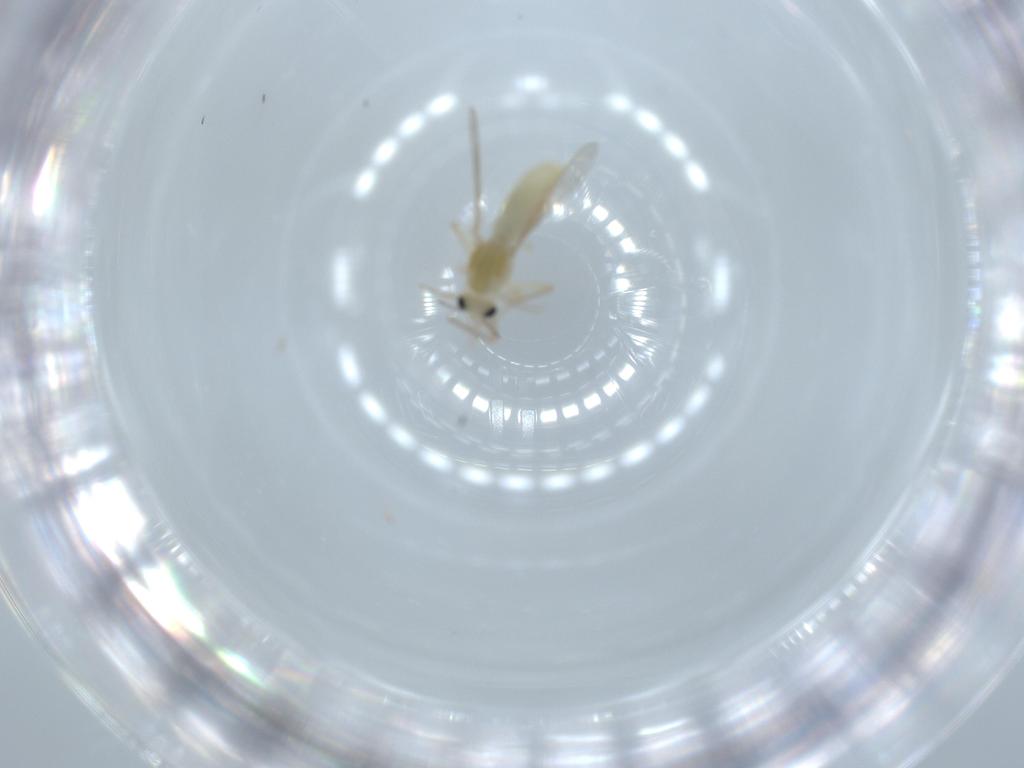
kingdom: Animalia
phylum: Arthropoda
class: Insecta
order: Diptera
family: Chironomidae
